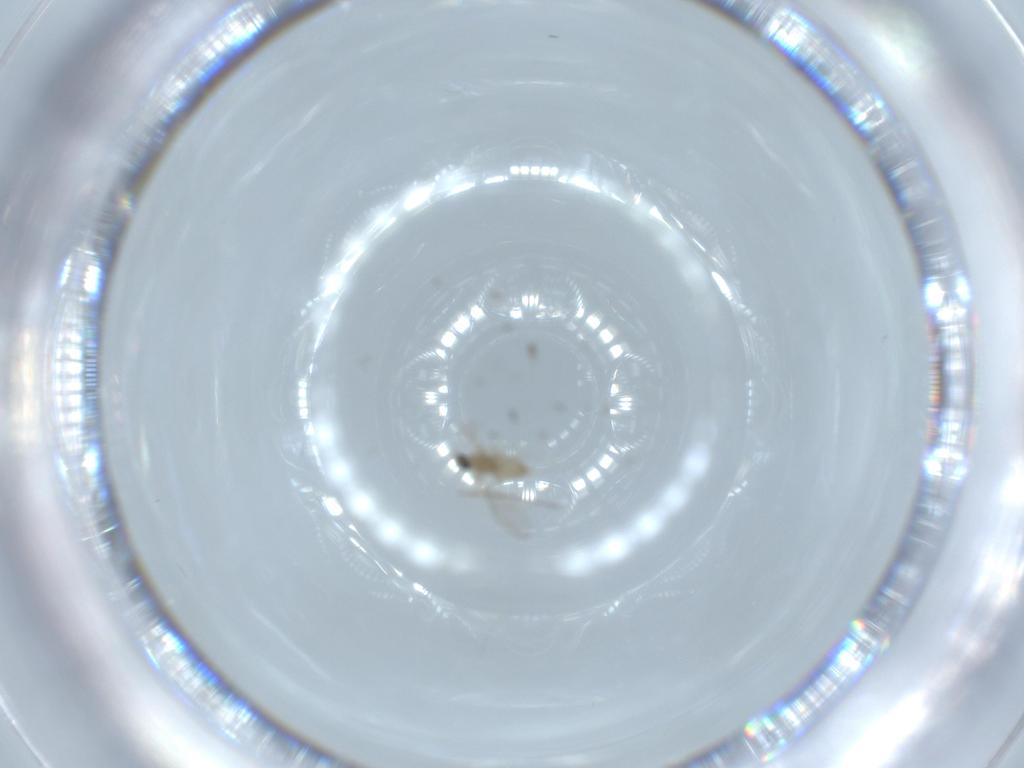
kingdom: Animalia
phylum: Arthropoda
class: Insecta
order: Diptera
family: Cecidomyiidae
